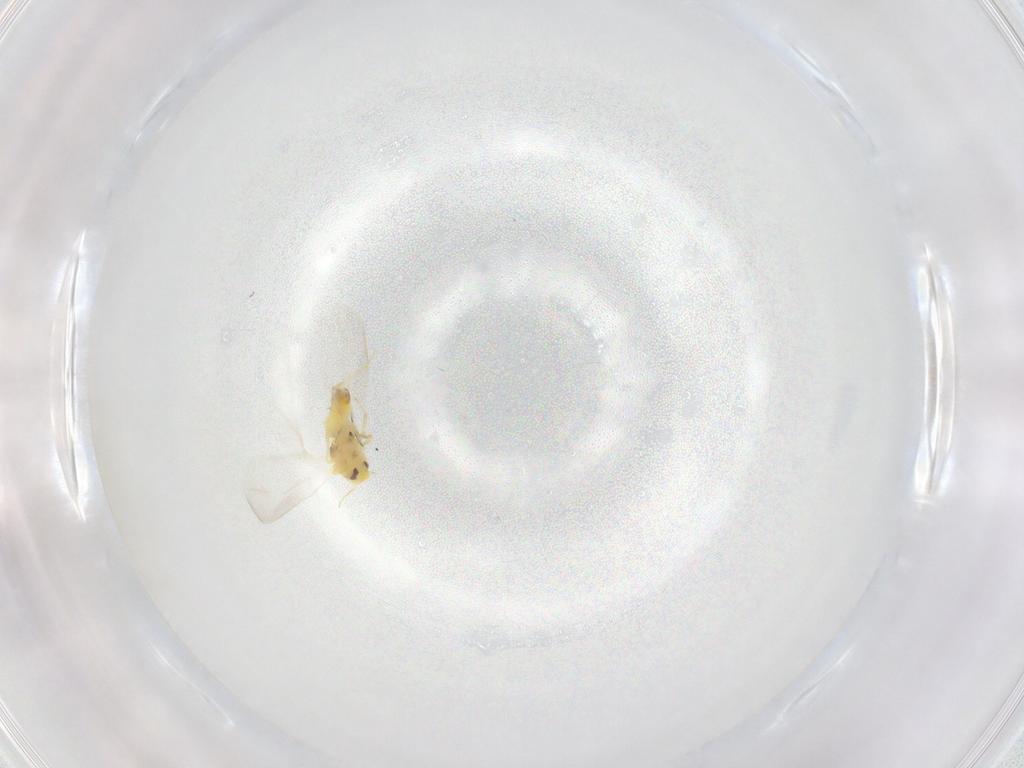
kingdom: Animalia
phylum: Arthropoda
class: Insecta
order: Hemiptera
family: Aleyrodidae
